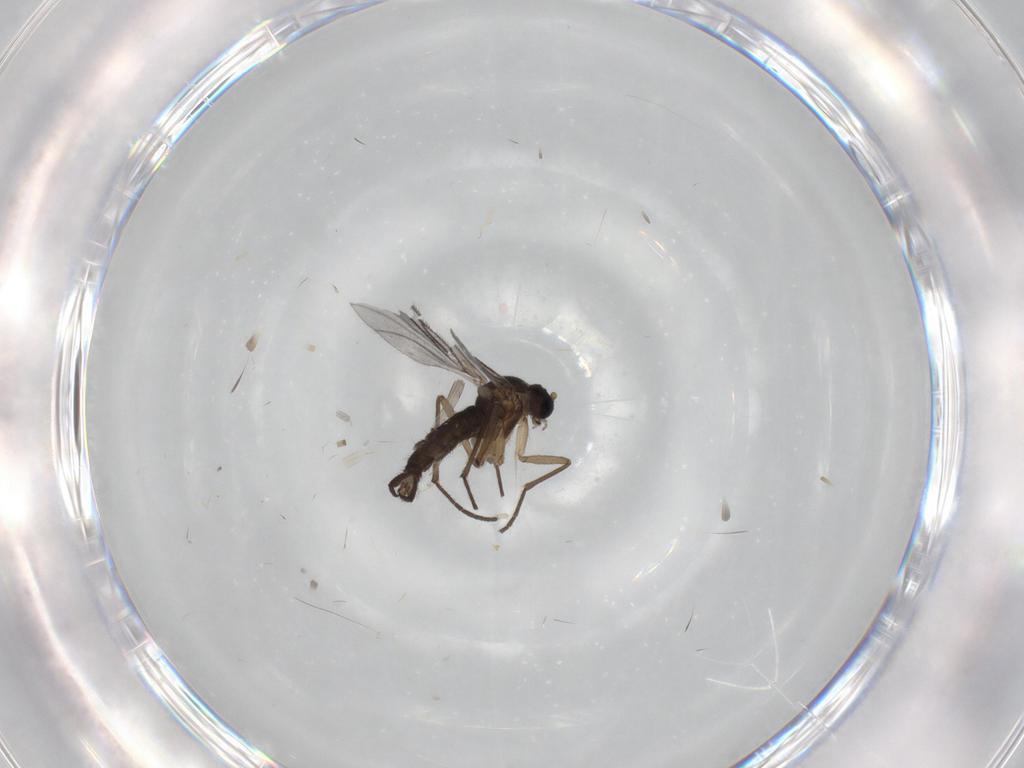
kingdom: Animalia
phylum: Arthropoda
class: Insecta
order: Diptera
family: Sciaridae
